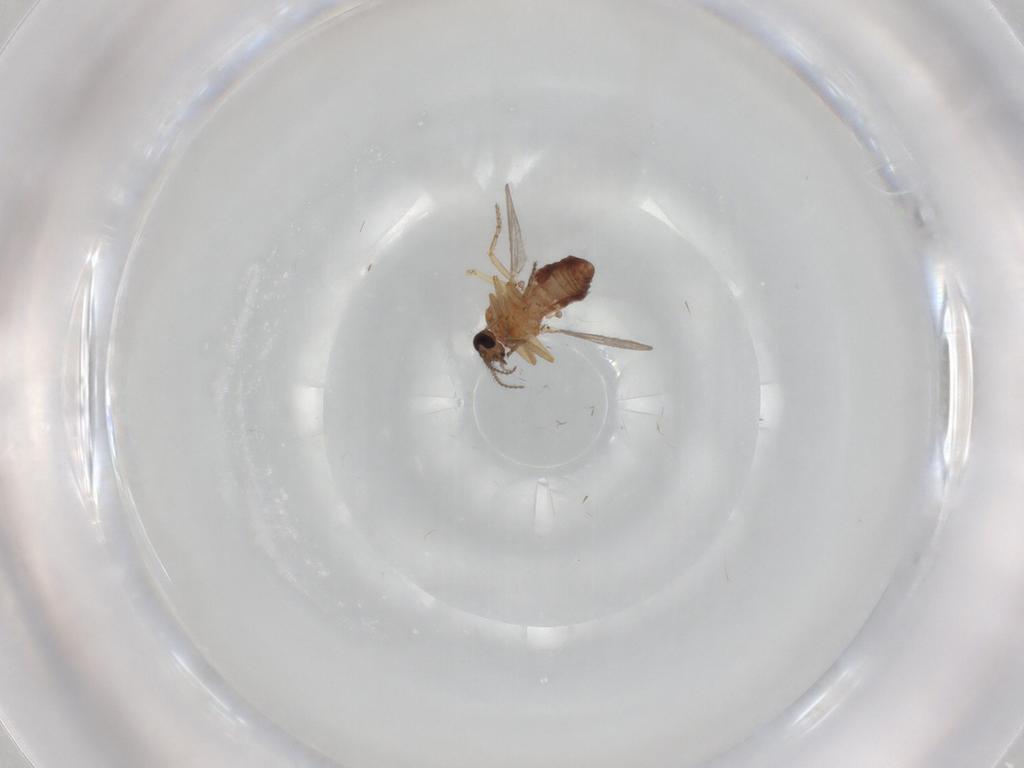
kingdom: Animalia
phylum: Arthropoda
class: Insecta
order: Diptera
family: Ceratopogonidae
